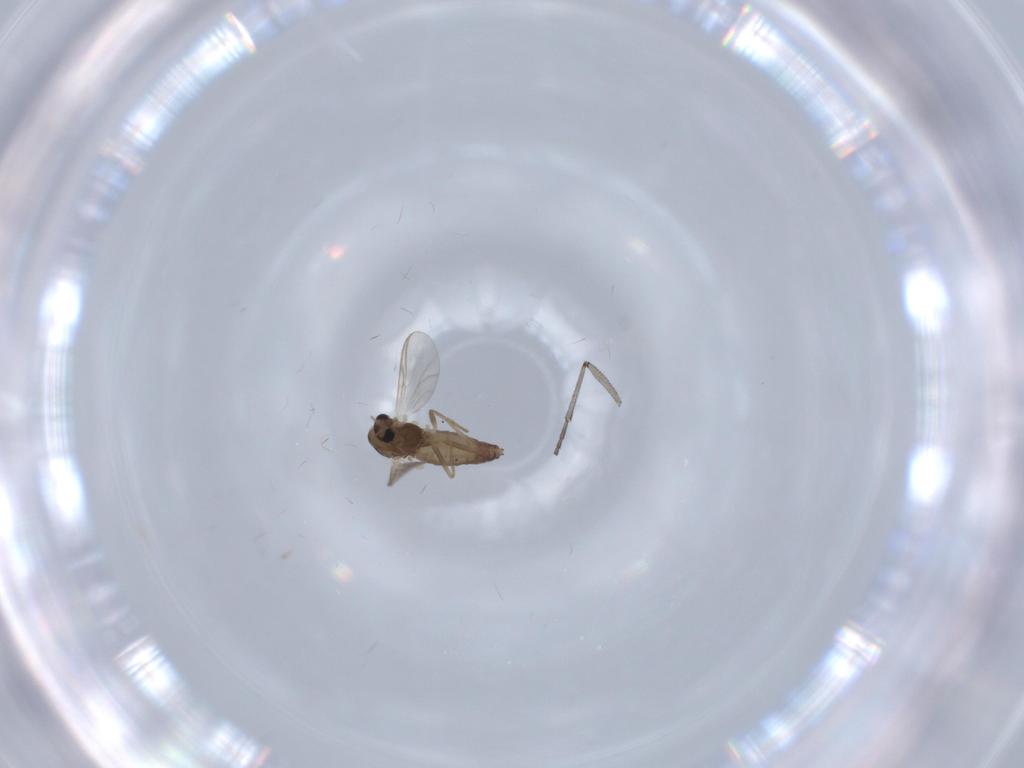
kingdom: Animalia
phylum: Arthropoda
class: Insecta
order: Diptera
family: Chironomidae
